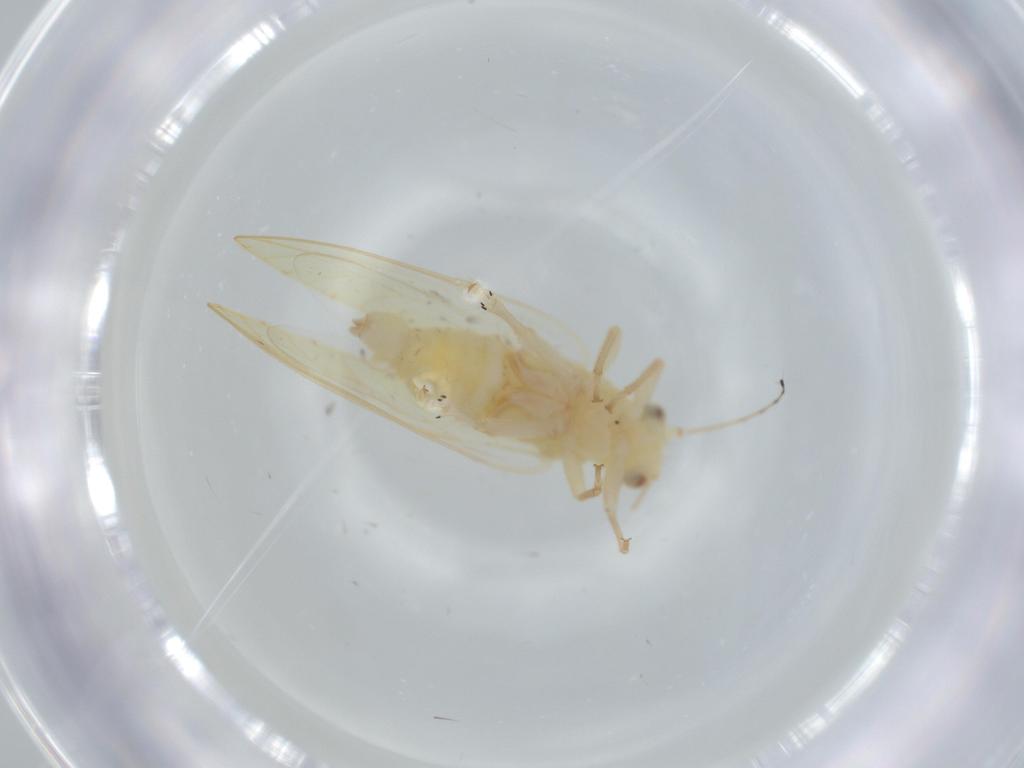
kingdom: Animalia
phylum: Arthropoda
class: Insecta
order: Hemiptera
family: Triozidae
